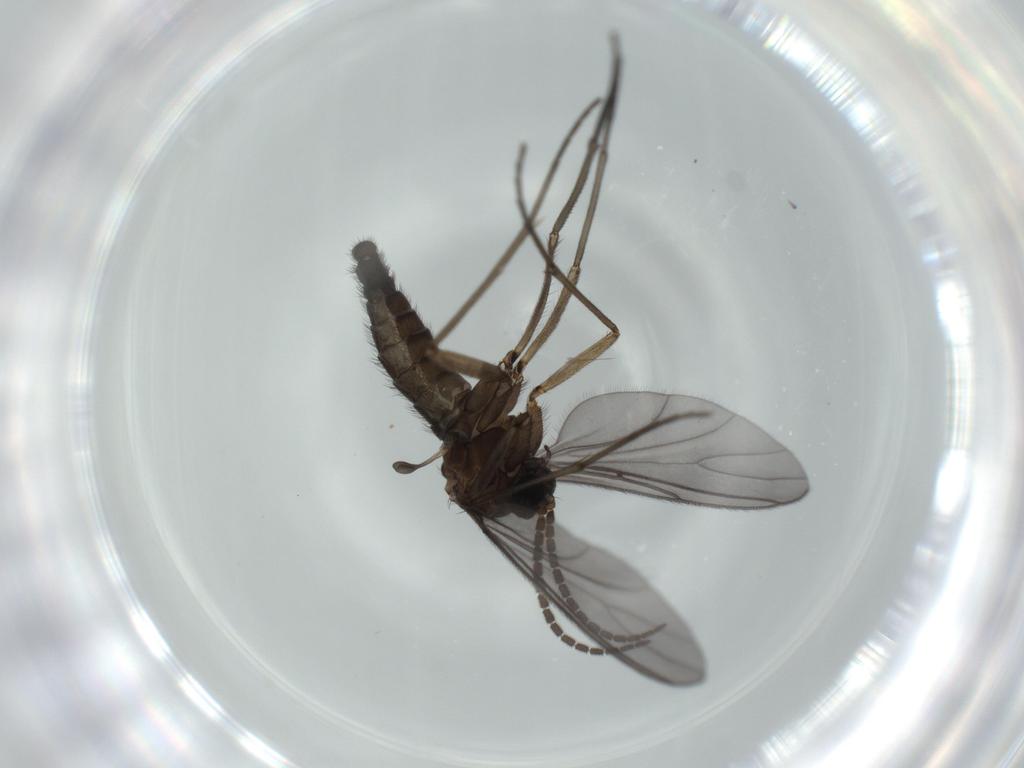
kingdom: Animalia
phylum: Arthropoda
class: Insecta
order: Diptera
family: Sciaridae
